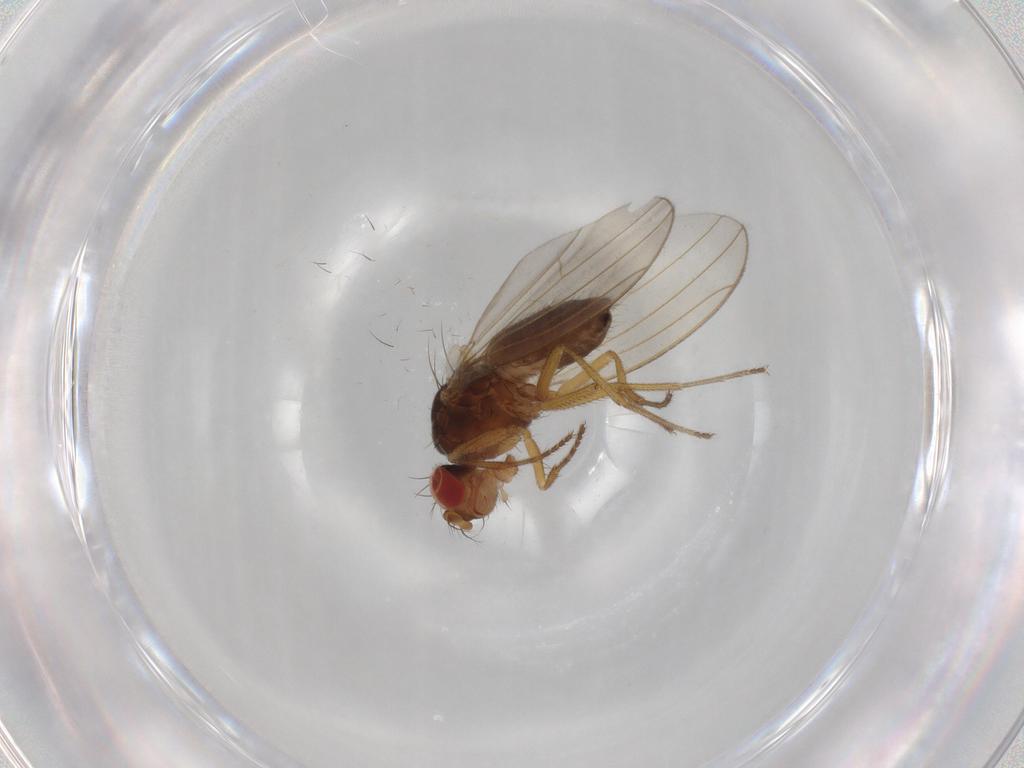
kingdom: Animalia
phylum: Arthropoda
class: Insecta
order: Diptera
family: Drosophilidae
